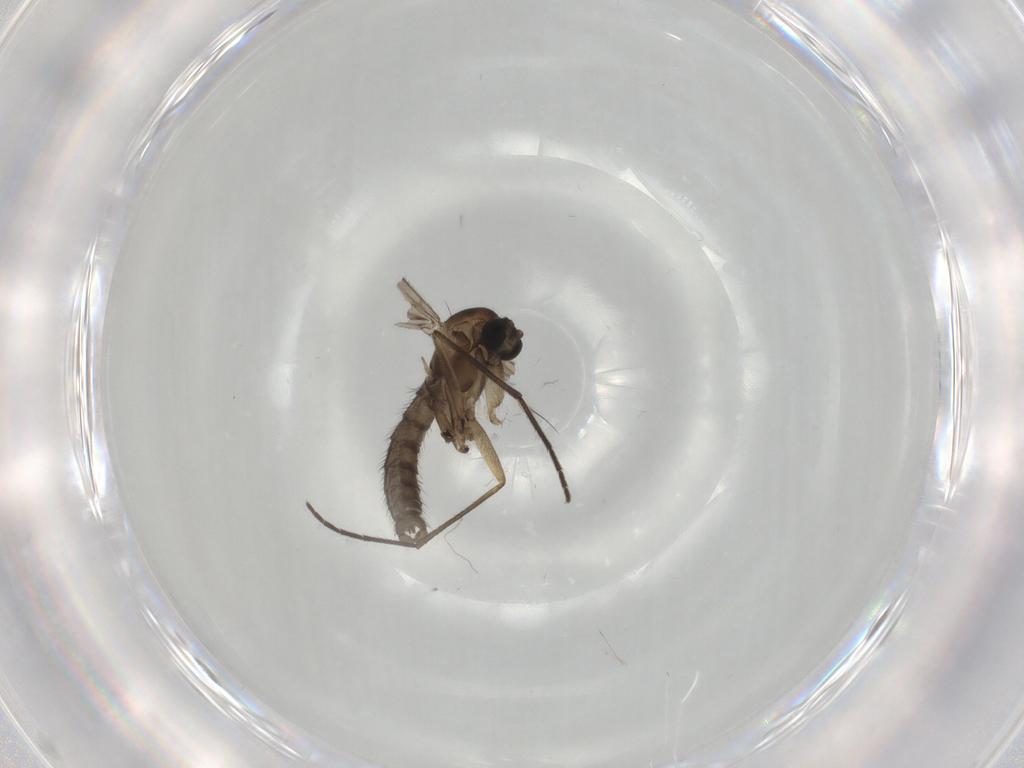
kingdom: Animalia
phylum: Arthropoda
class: Insecta
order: Diptera
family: Sciaridae
